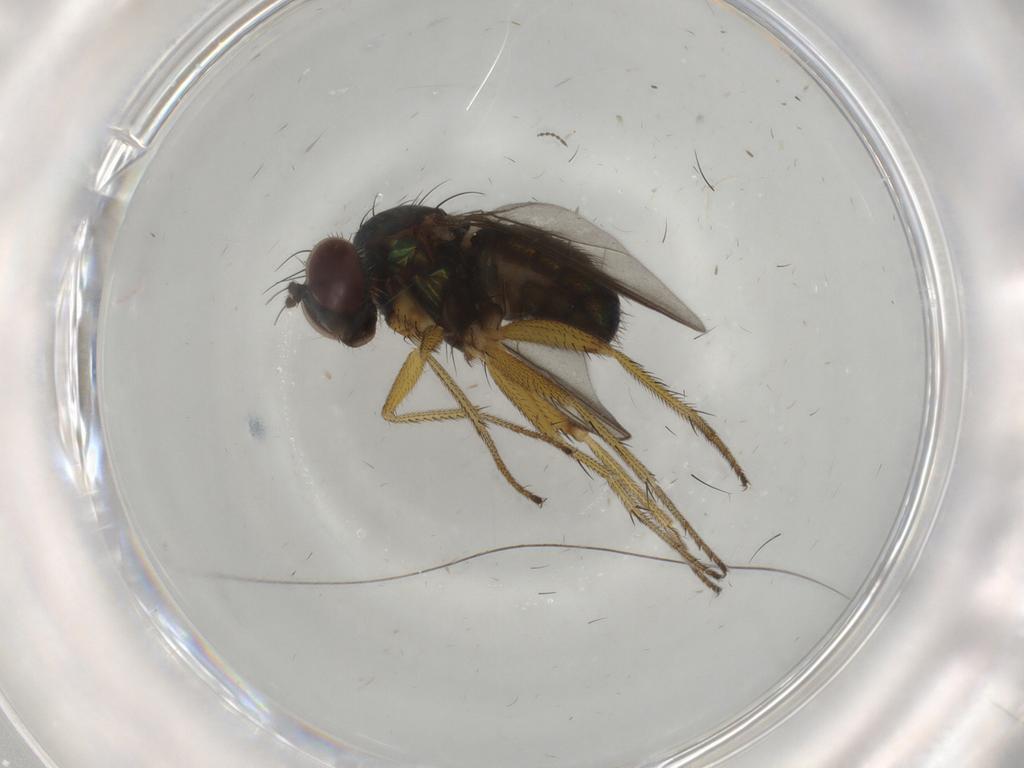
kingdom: Animalia
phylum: Arthropoda
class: Insecta
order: Diptera
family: Dolichopodidae
